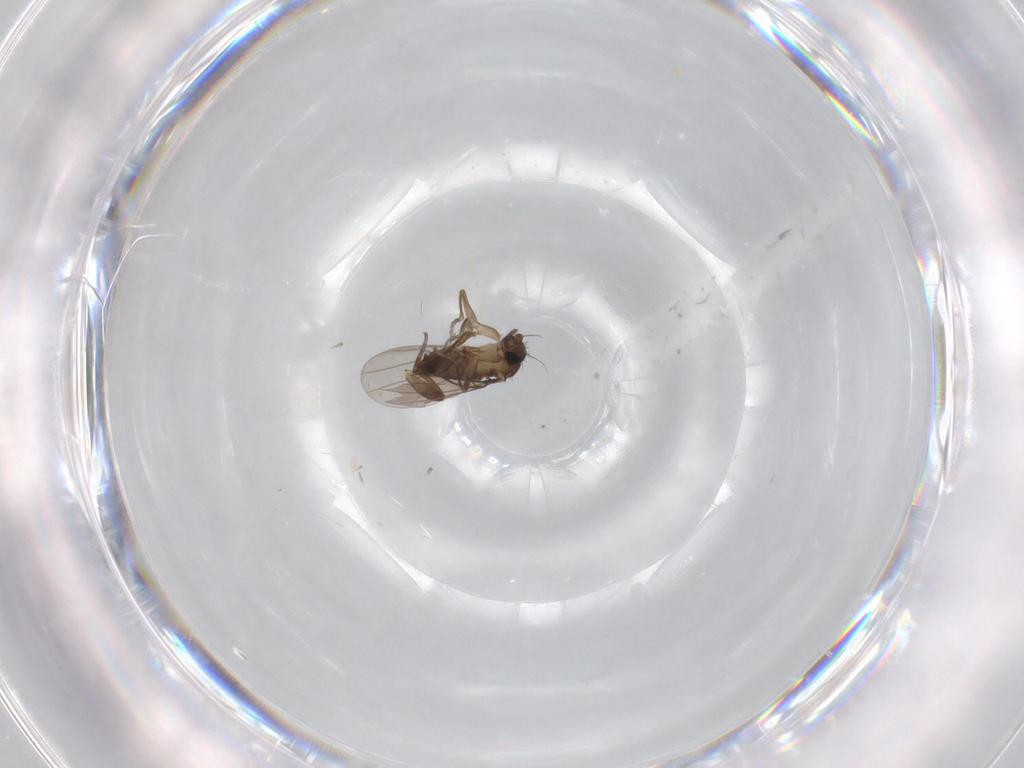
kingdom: Animalia
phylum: Arthropoda
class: Insecta
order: Diptera
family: Cecidomyiidae
